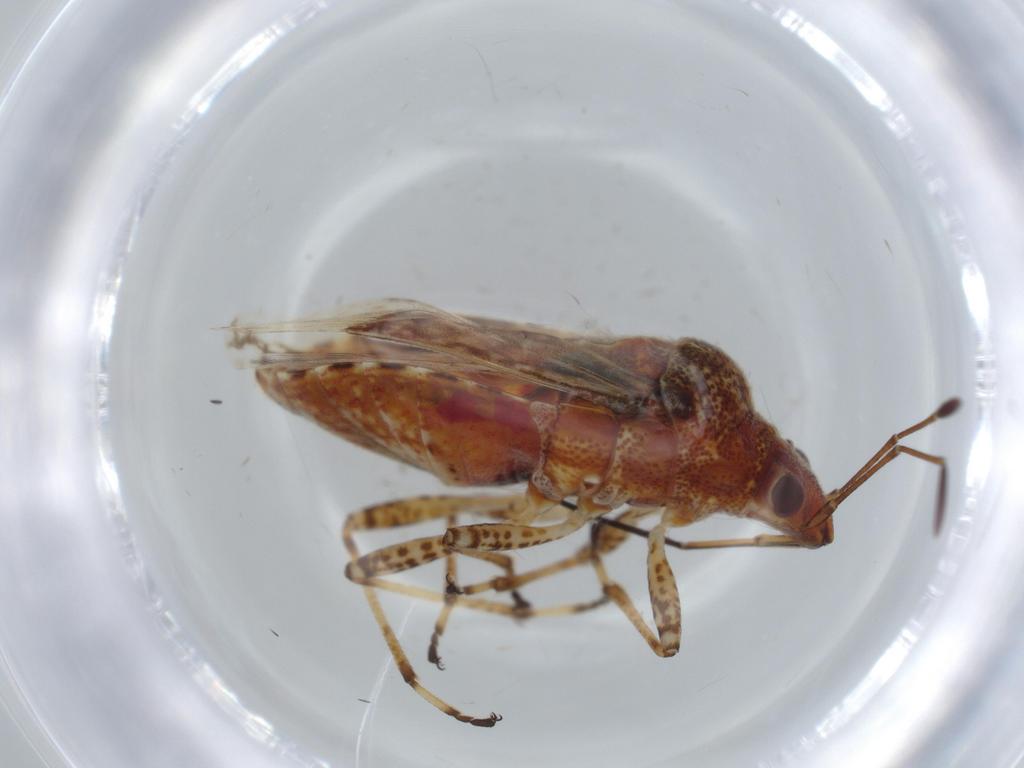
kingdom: Animalia
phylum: Arthropoda
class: Insecta
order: Hemiptera
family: Lygaeidae
